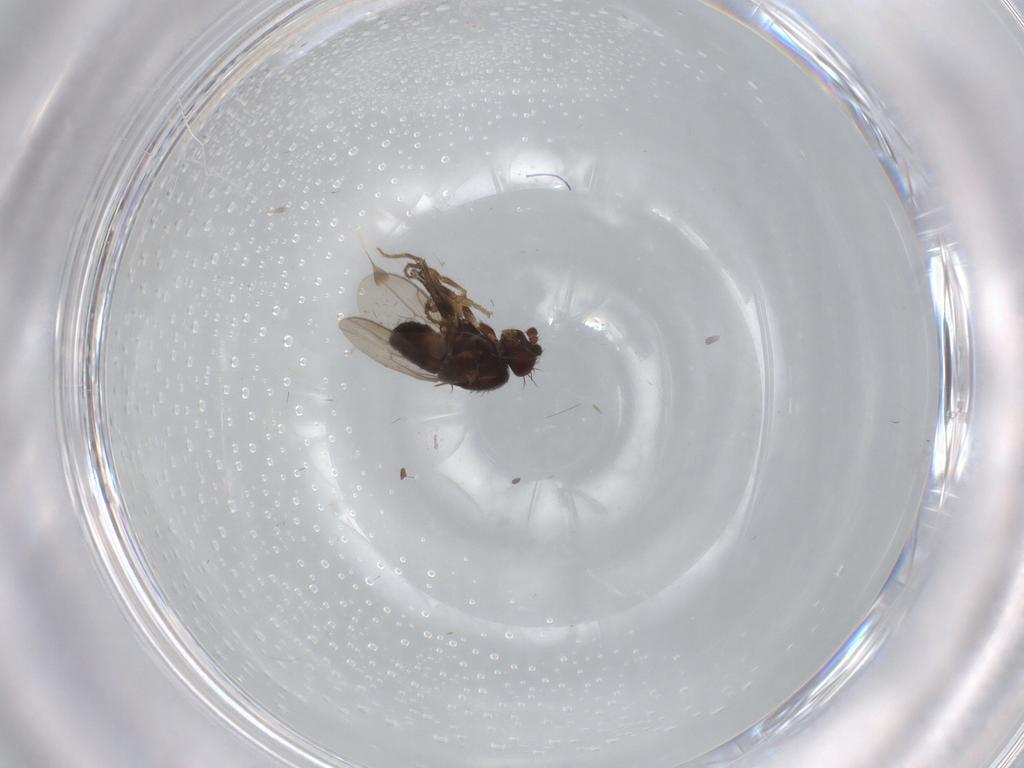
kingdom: Animalia
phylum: Arthropoda
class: Insecta
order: Diptera
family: Sphaeroceridae
